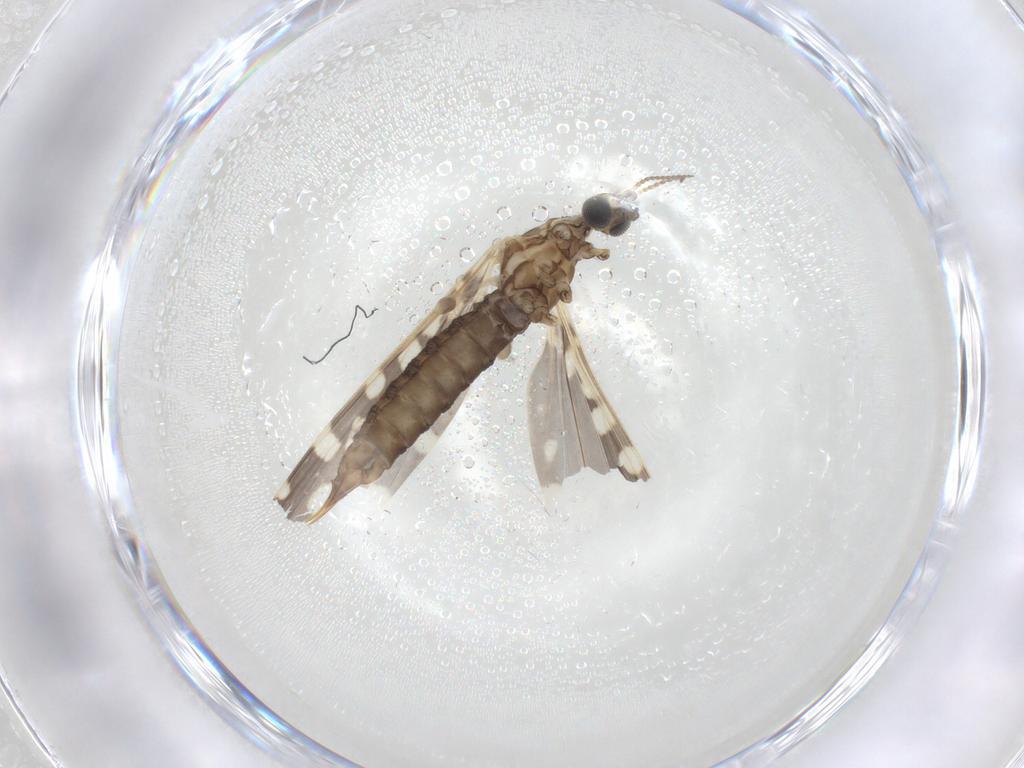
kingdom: Animalia
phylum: Arthropoda
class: Insecta
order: Diptera
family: Limoniidae
